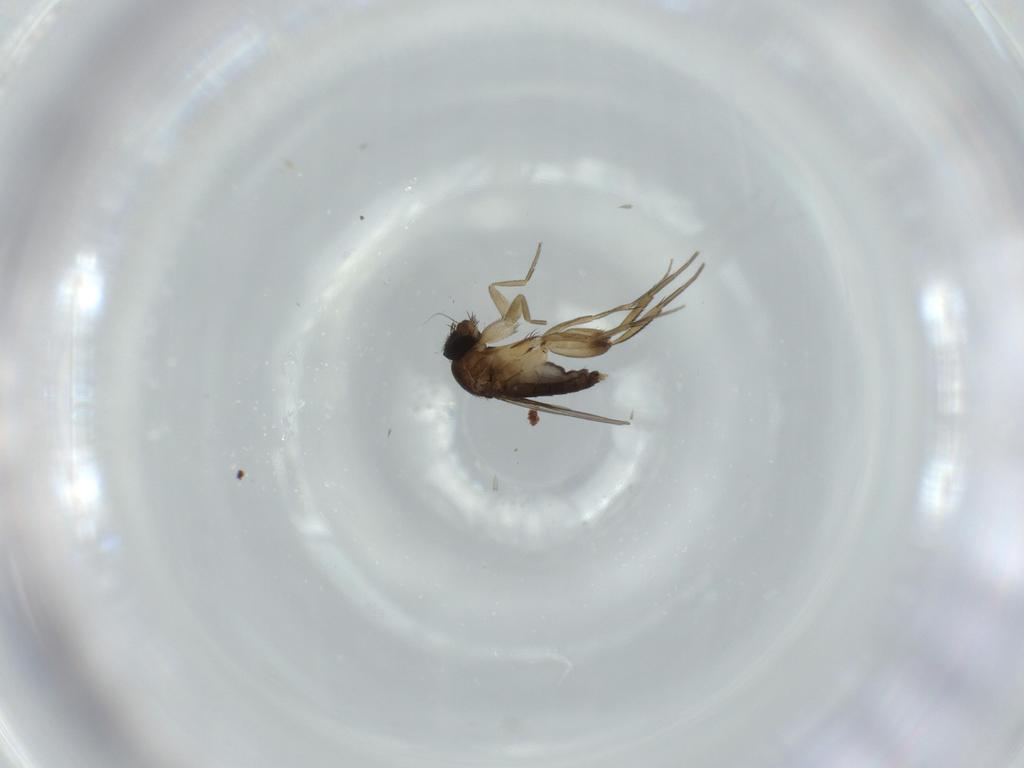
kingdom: Animalia
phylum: Arthropoda
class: Insecta
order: Diptera
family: Phoridae
